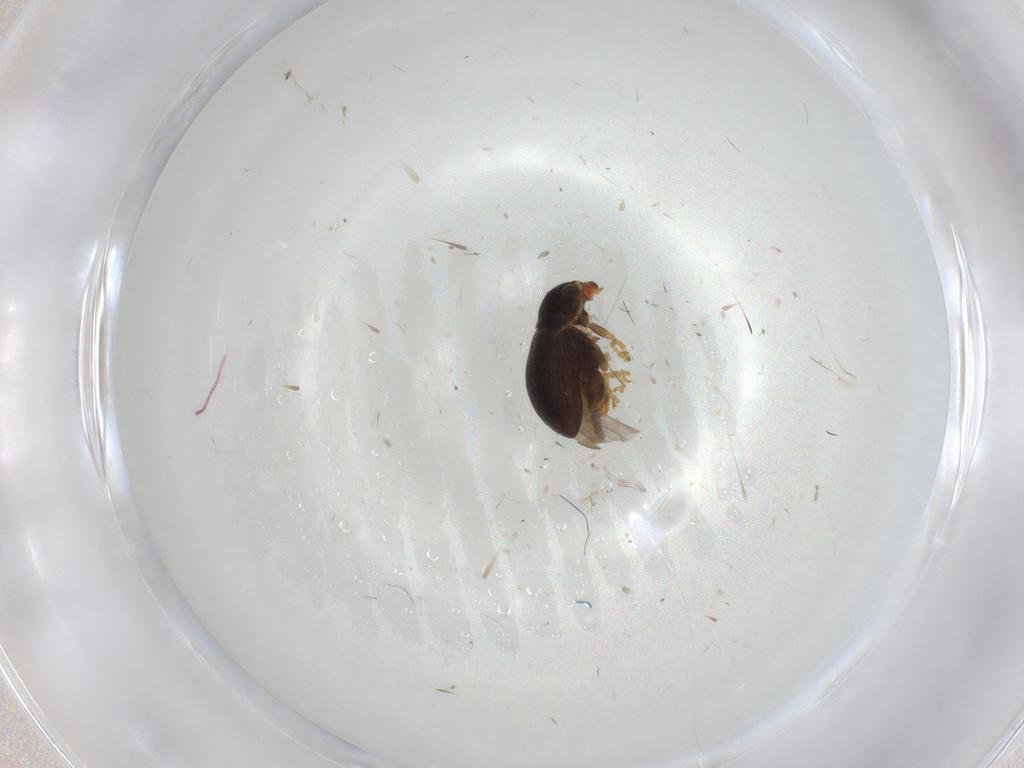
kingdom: Animalia
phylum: Arthropoda
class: Insecta
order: Coleoptera
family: Chrysomelidae
